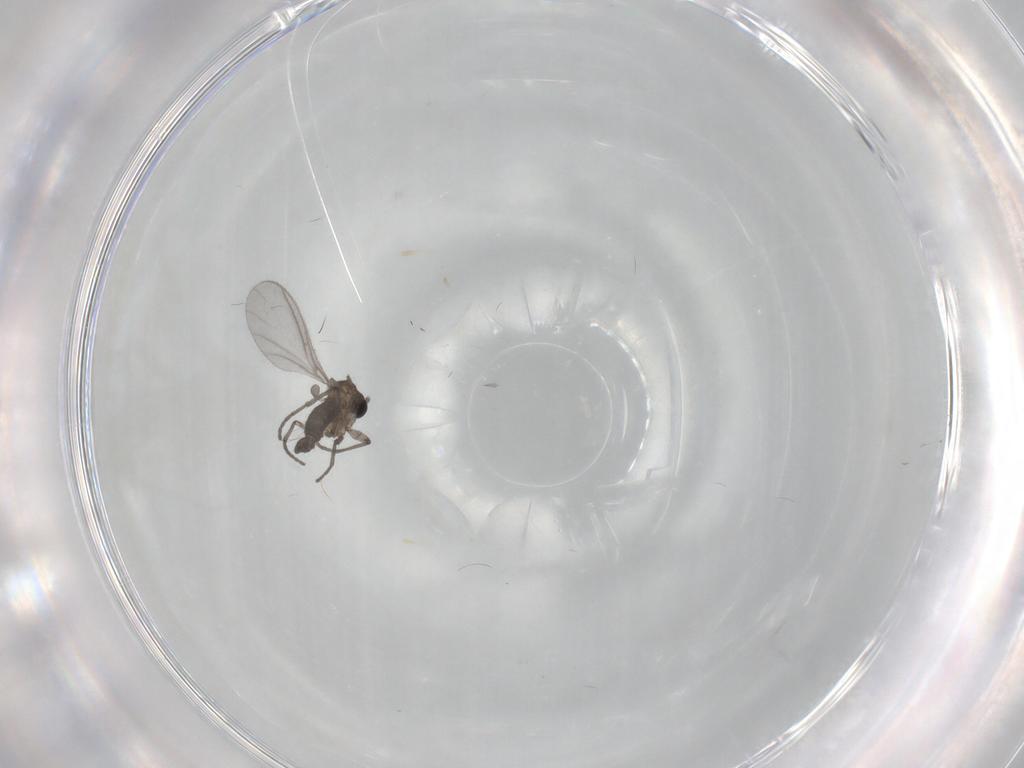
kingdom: Animalia
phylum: Arthropoda
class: Insecta
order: Diptera
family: Sciaridae
